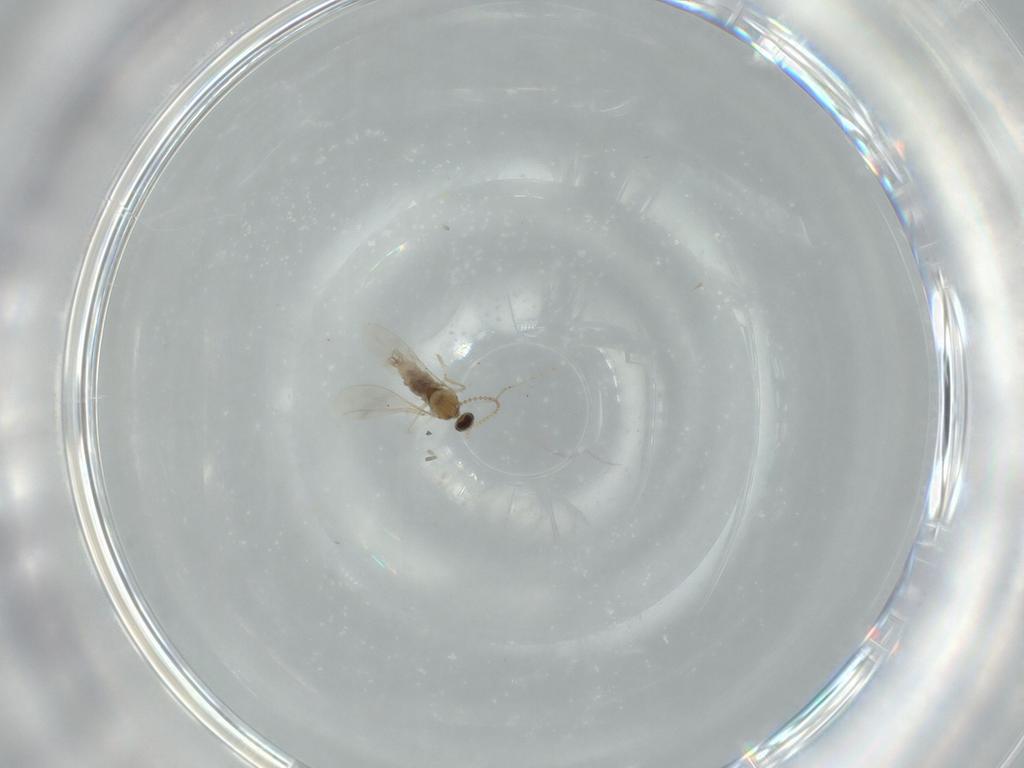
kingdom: Animalia
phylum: Arthropoda
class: Insecta
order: Diptera
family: Cecidomyiidae
